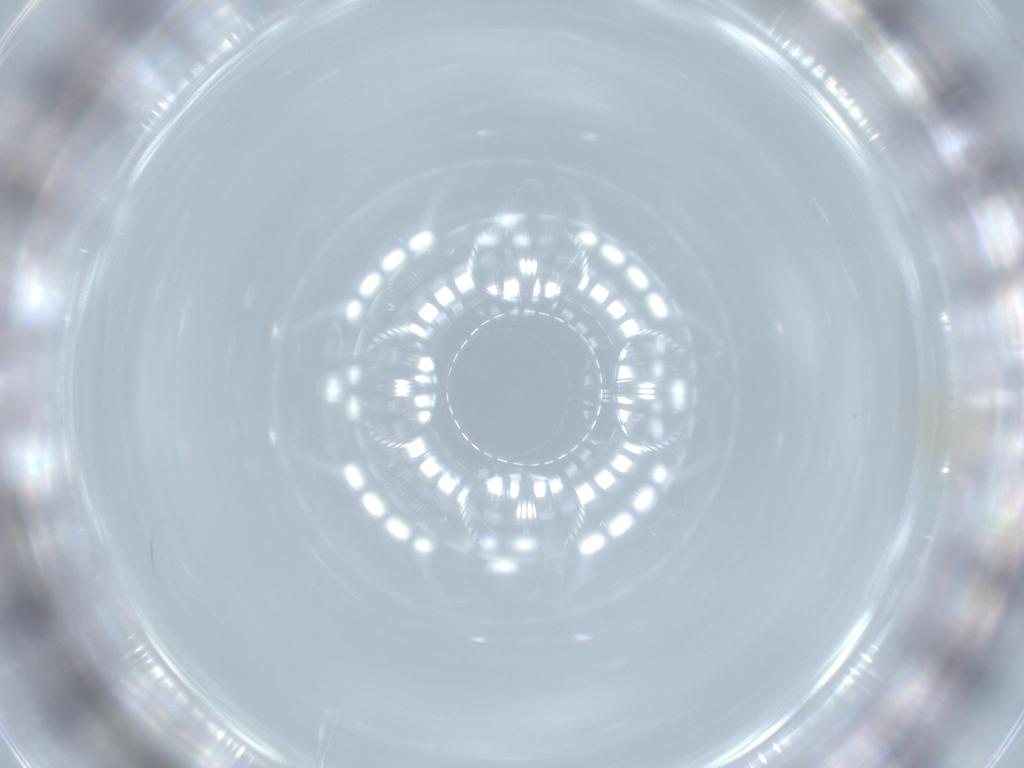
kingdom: Animalia
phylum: Arthropoda
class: Insecta
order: Hemiptera
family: Aleyrodidae
